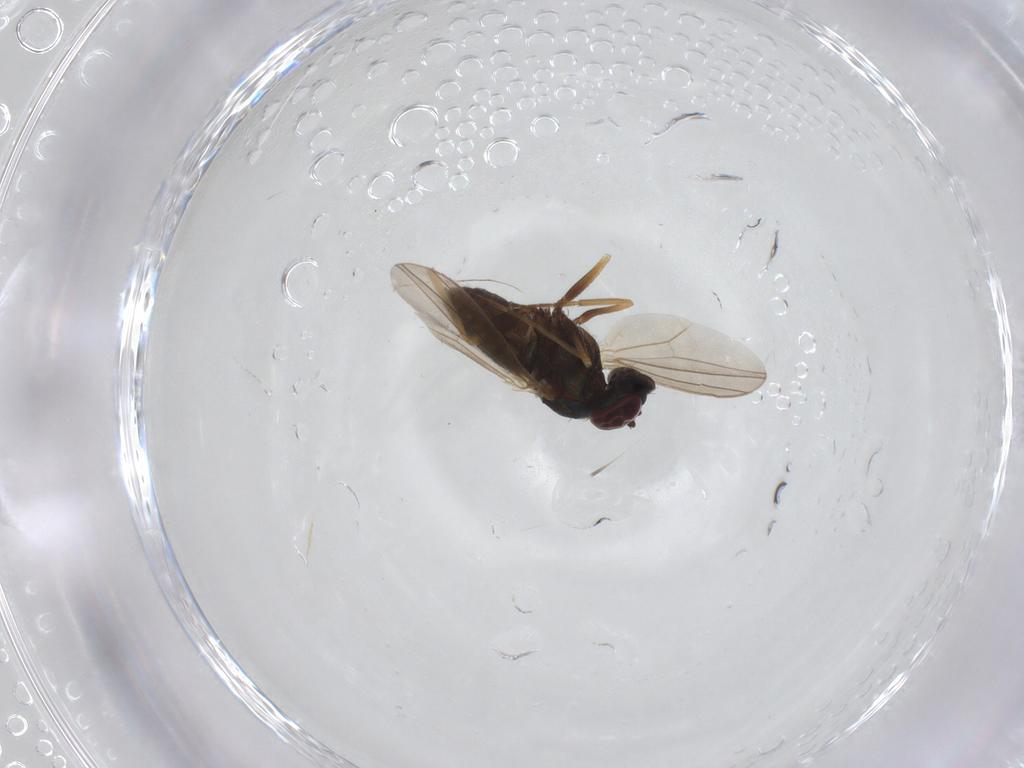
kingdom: Animalia
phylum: Arthropoda
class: Insecta
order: Diptera
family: Dolichopodidae
